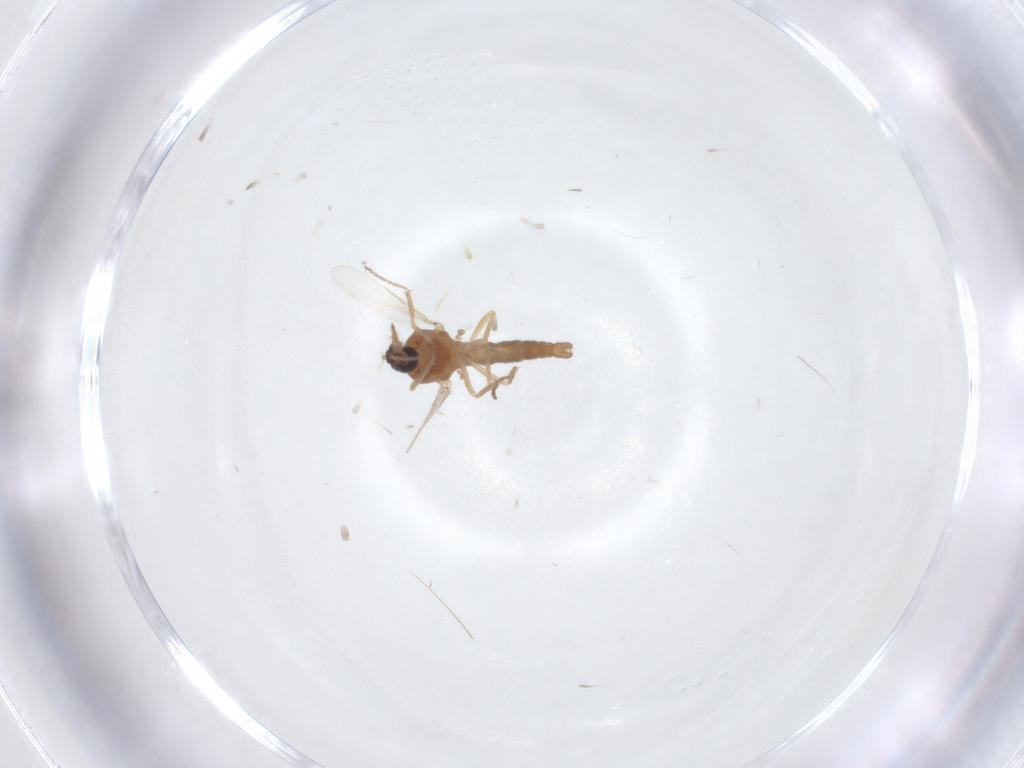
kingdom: Animalia
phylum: Arthropoda
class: Insecta
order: Diptera
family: Ceratopogonidae
